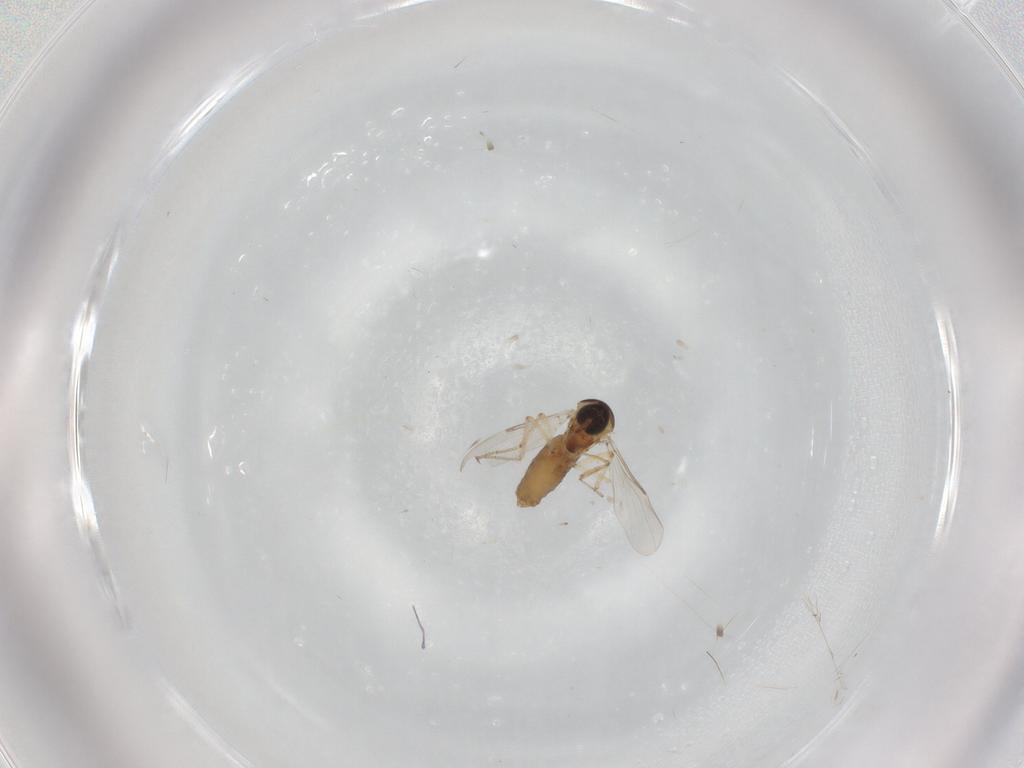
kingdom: Animalia
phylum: Arthropoda
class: Insecta
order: Diptera
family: Ceratopogonidae
